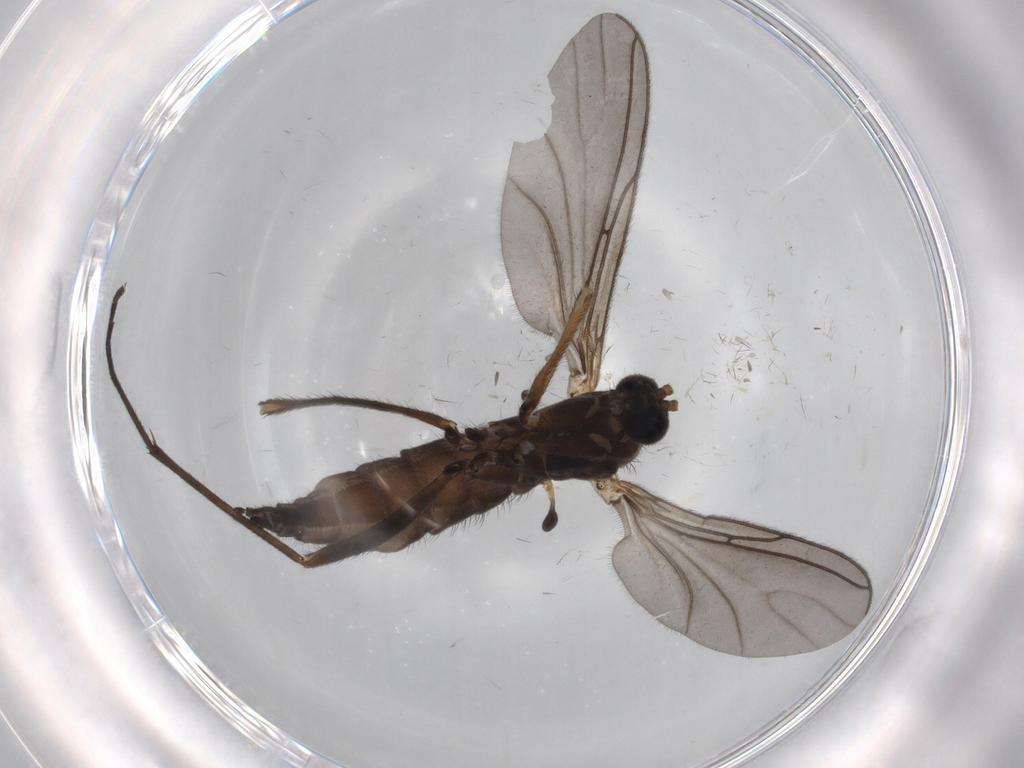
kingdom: Animalia
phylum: Arthropoda
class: Insecta
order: Diptera
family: Sciaridae
